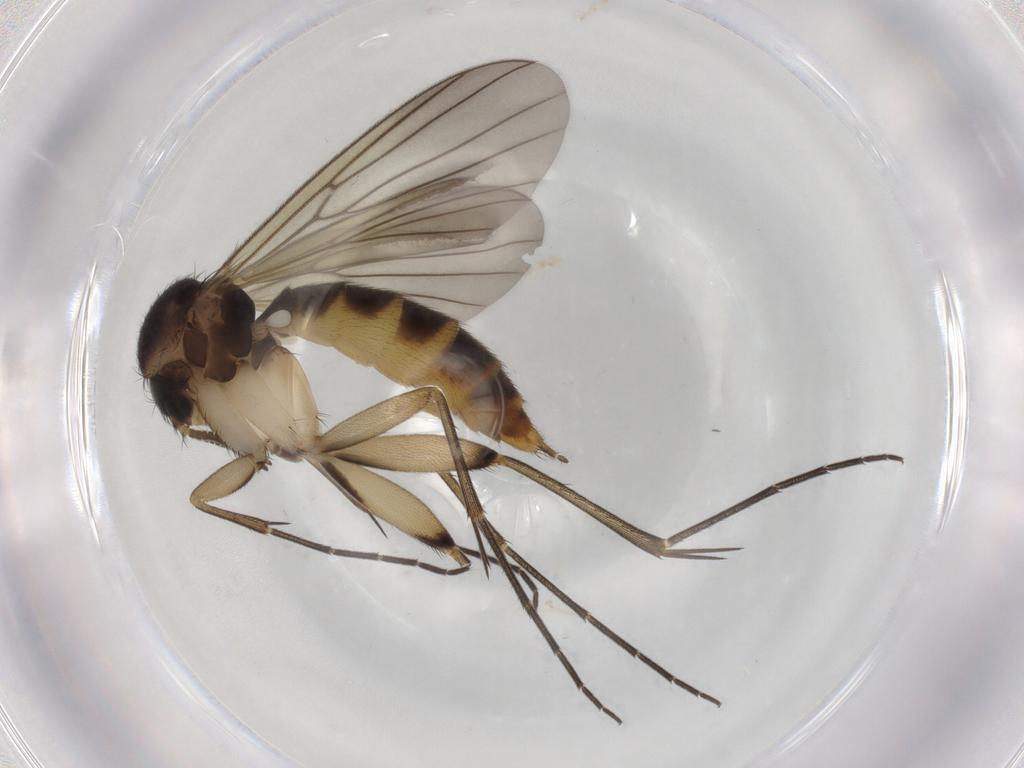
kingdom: Animalia
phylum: Arthropoda
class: Insecta
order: Diptera
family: Mycetophilidae
